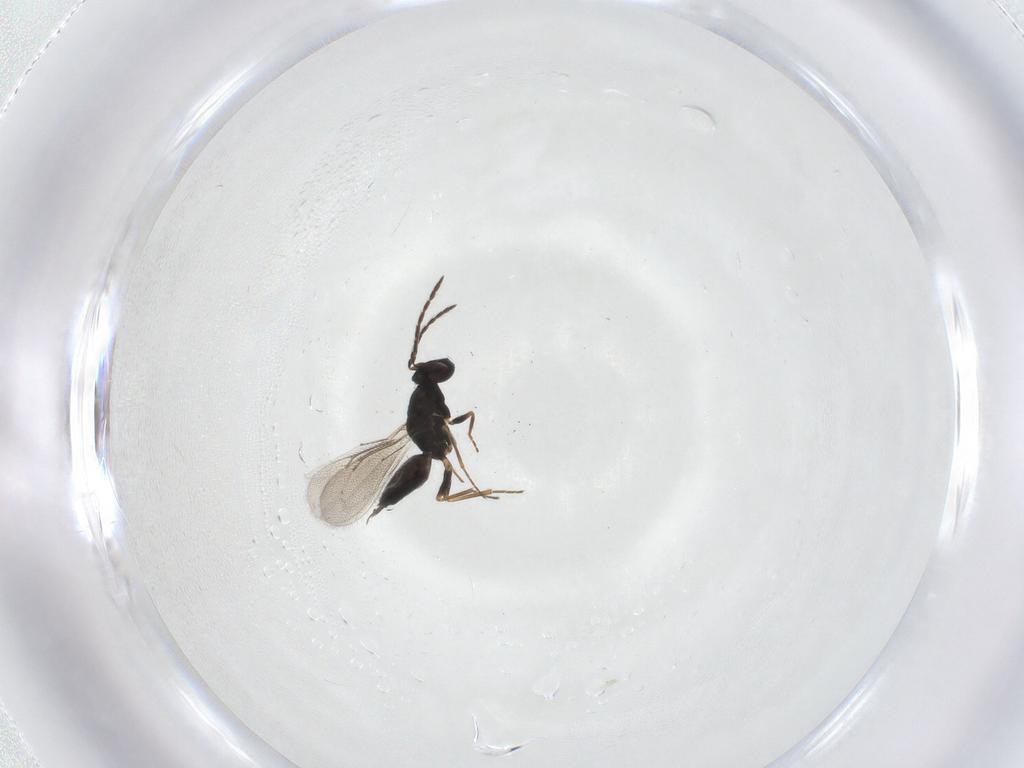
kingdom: Animalia
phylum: Arthropoda
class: Insecta
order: Hymenoptera
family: Eulophidae
